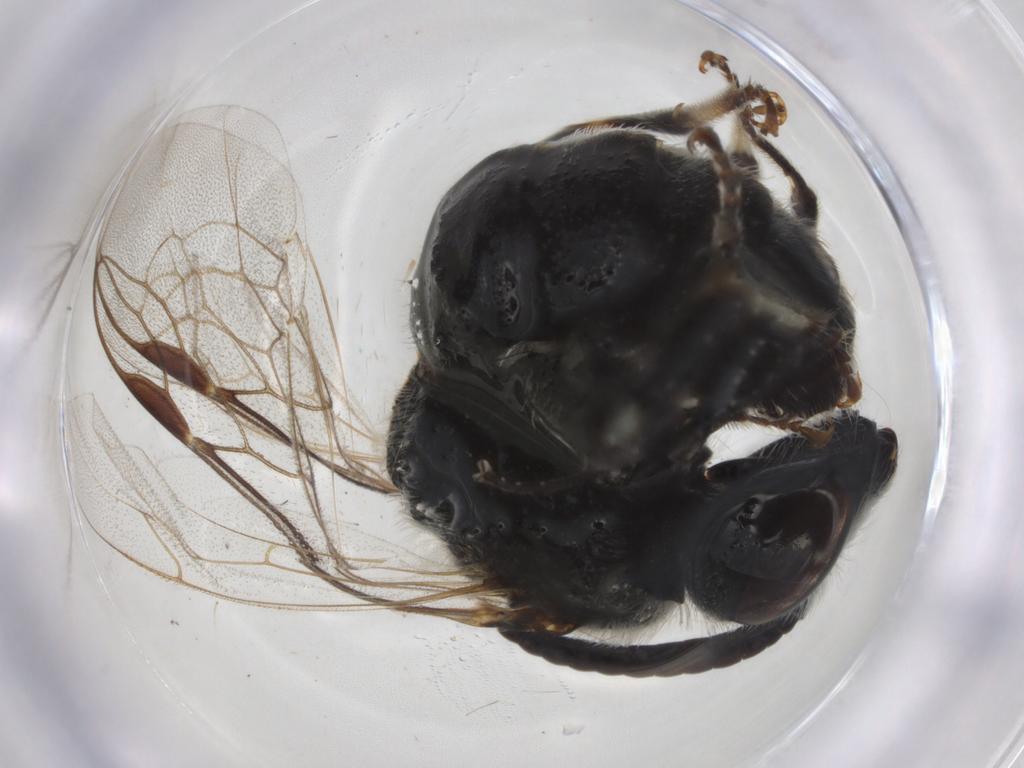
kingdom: Animalia
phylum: Arthropoda
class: Insecta
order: Hymenoptera
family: Halictidae
